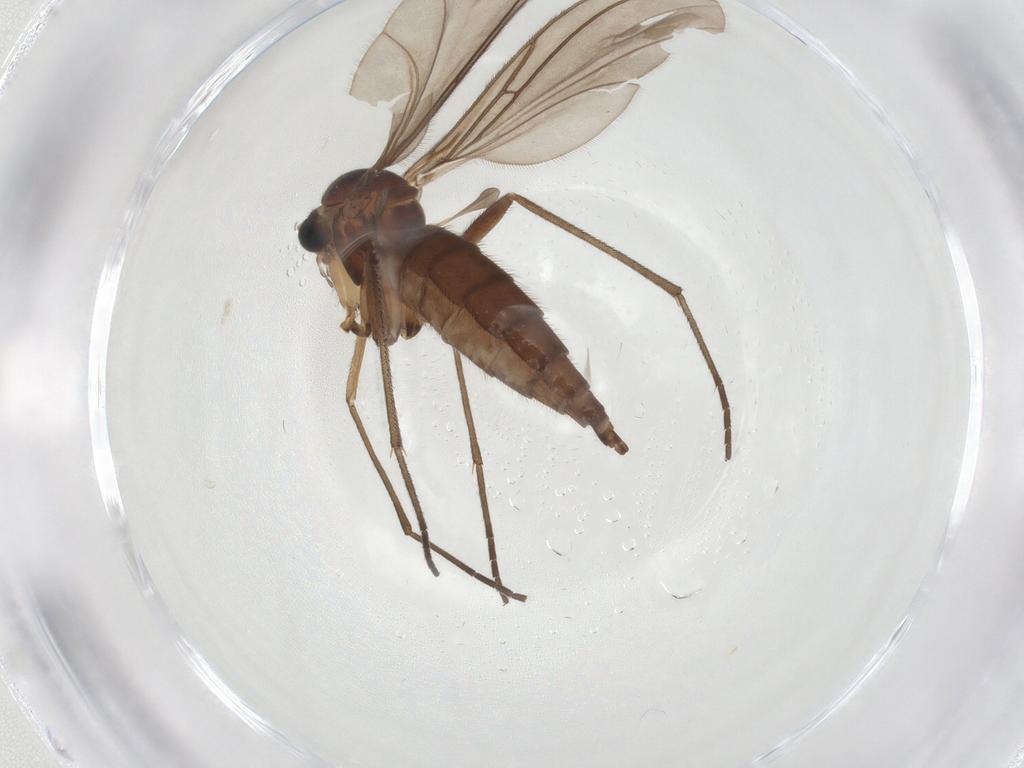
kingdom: Animalia
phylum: Arthropoda
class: Insecta
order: Diptera
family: Sciaridae
